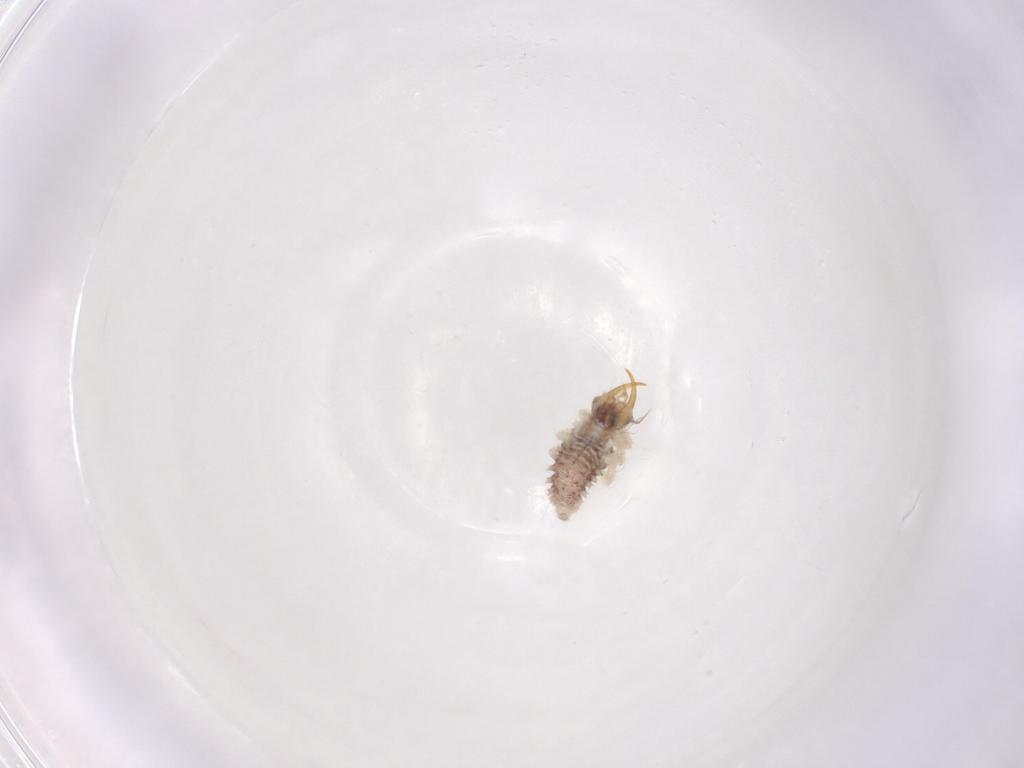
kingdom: Animalia
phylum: Arthropoda
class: Insecta
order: Neuroptera
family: Chrysopidae
